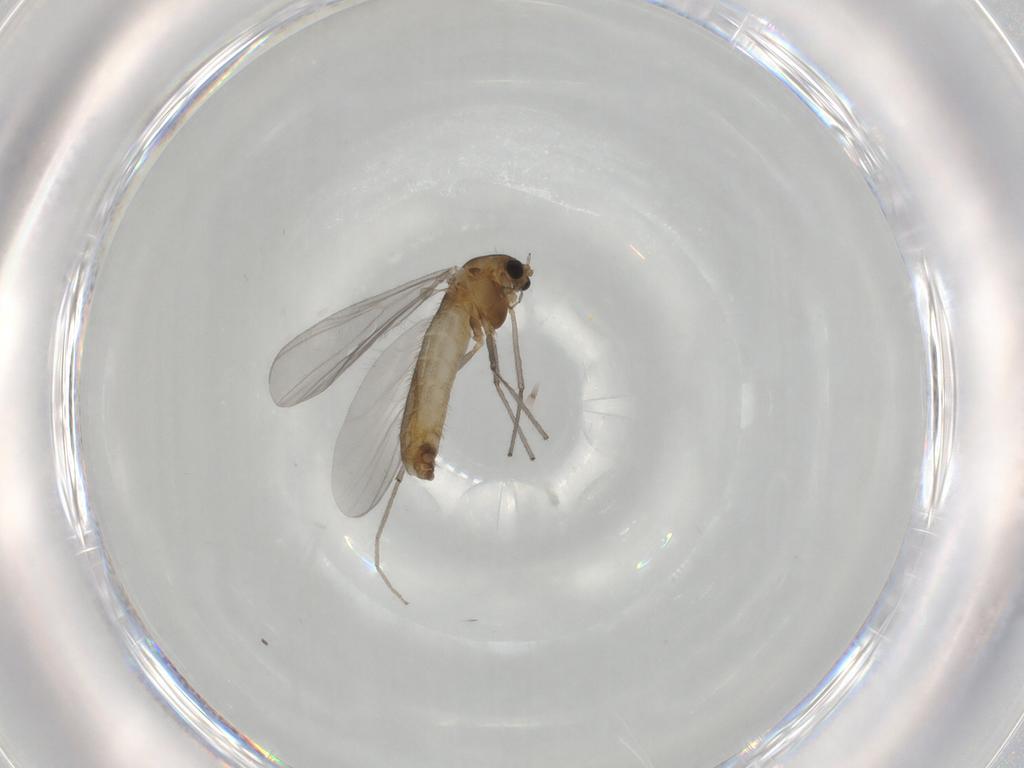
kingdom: Animalia
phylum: Arthropoda
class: Insecta
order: Diptera
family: Chironomidae
